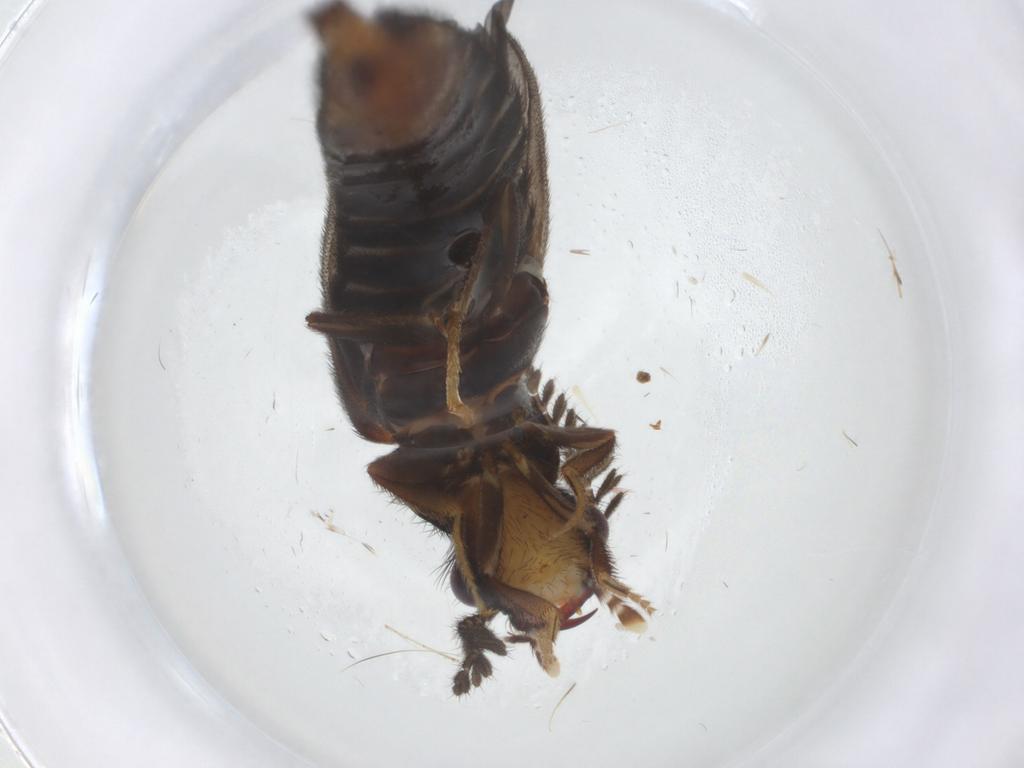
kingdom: Animalia
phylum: Arthropoda
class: Insecta
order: Coleoptera
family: Phengodidae
